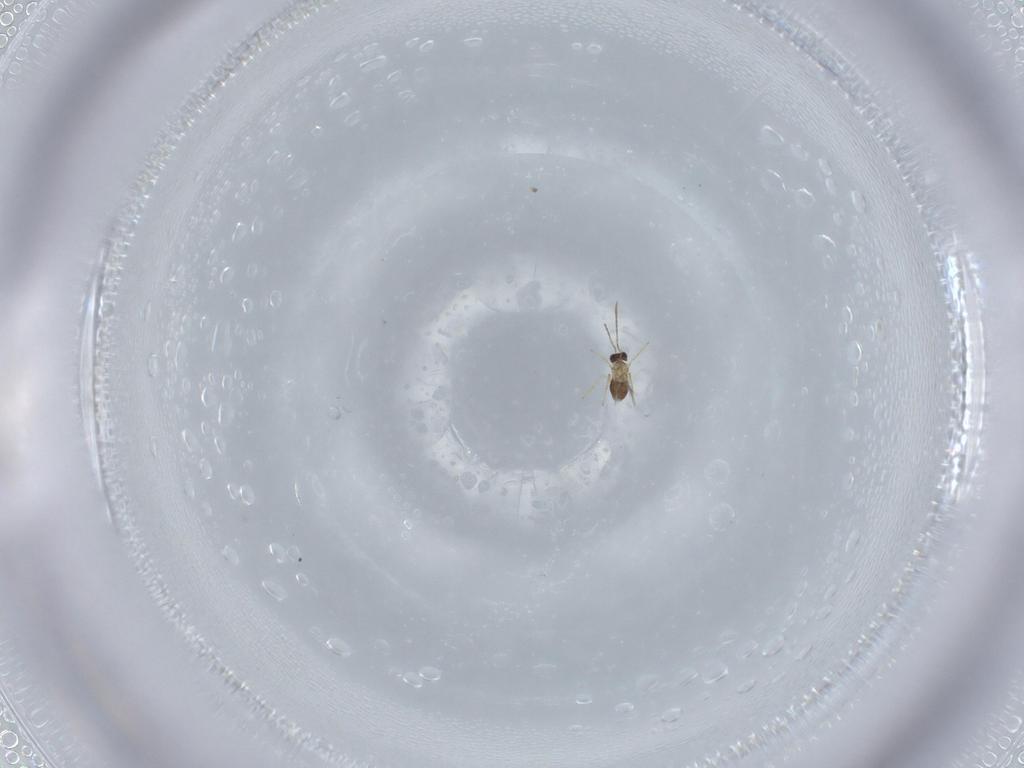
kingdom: Animalia
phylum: Arthropoda
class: Insecta
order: Hymenoptera
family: Mymaridae
